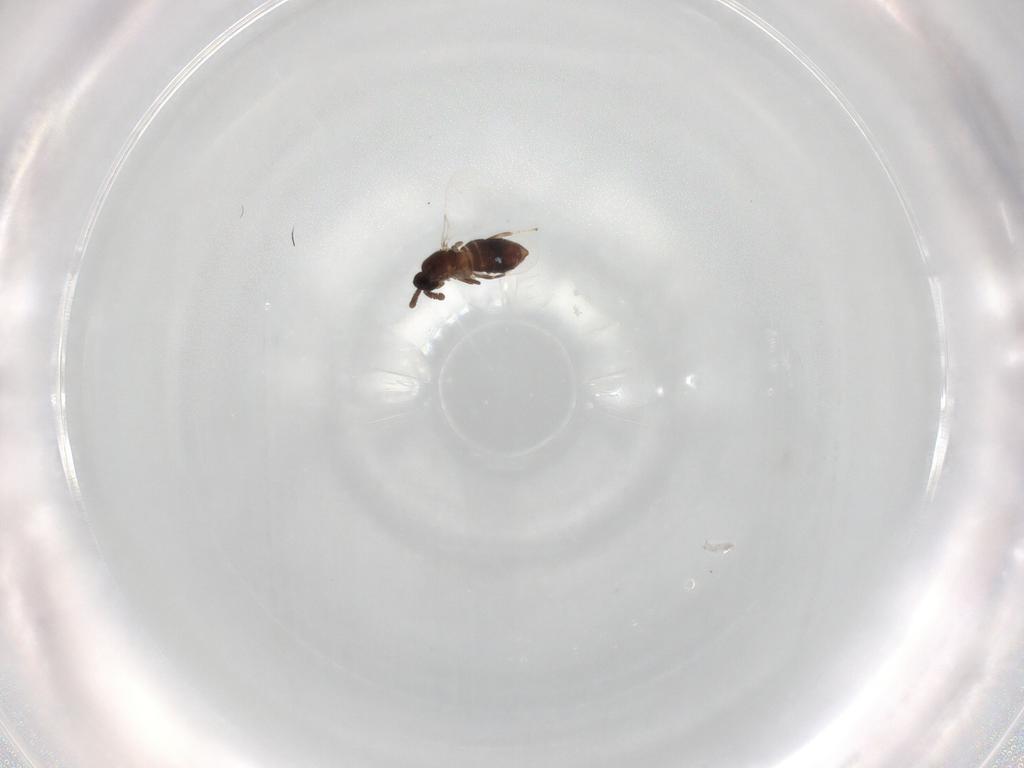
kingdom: Animalia
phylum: Arthropoda
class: Insecta
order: Diptera
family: Scatopsidae
